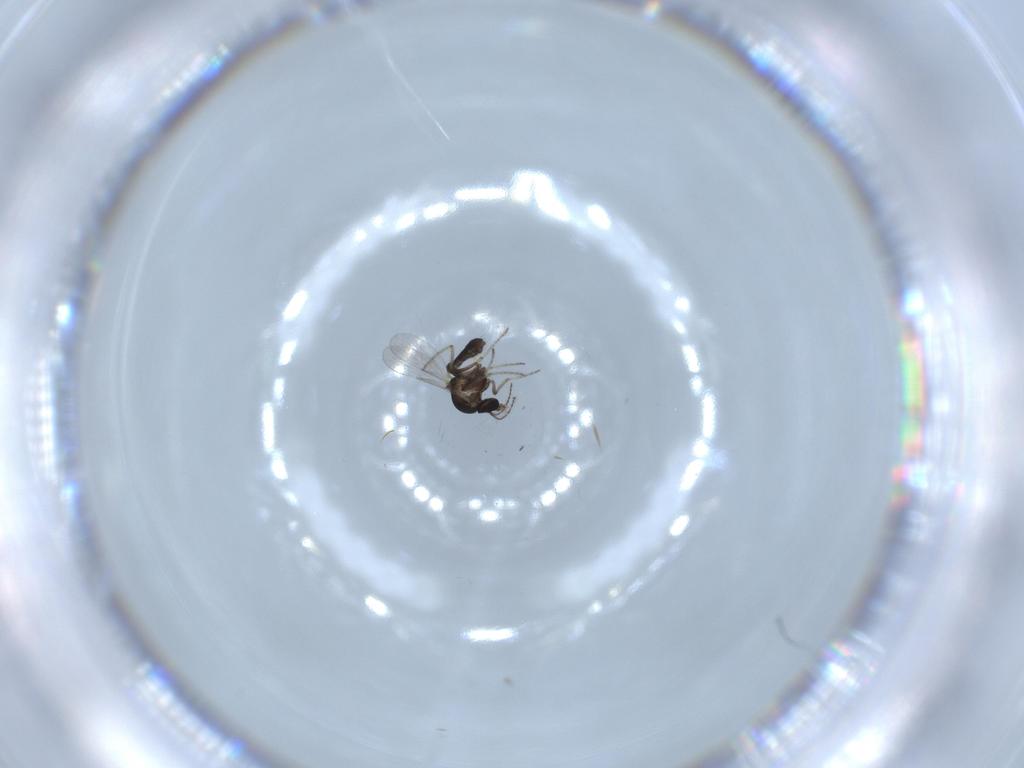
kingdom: Animalia
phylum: Arthropoda
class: Insecta
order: Diptera
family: Ceratopogonidae
